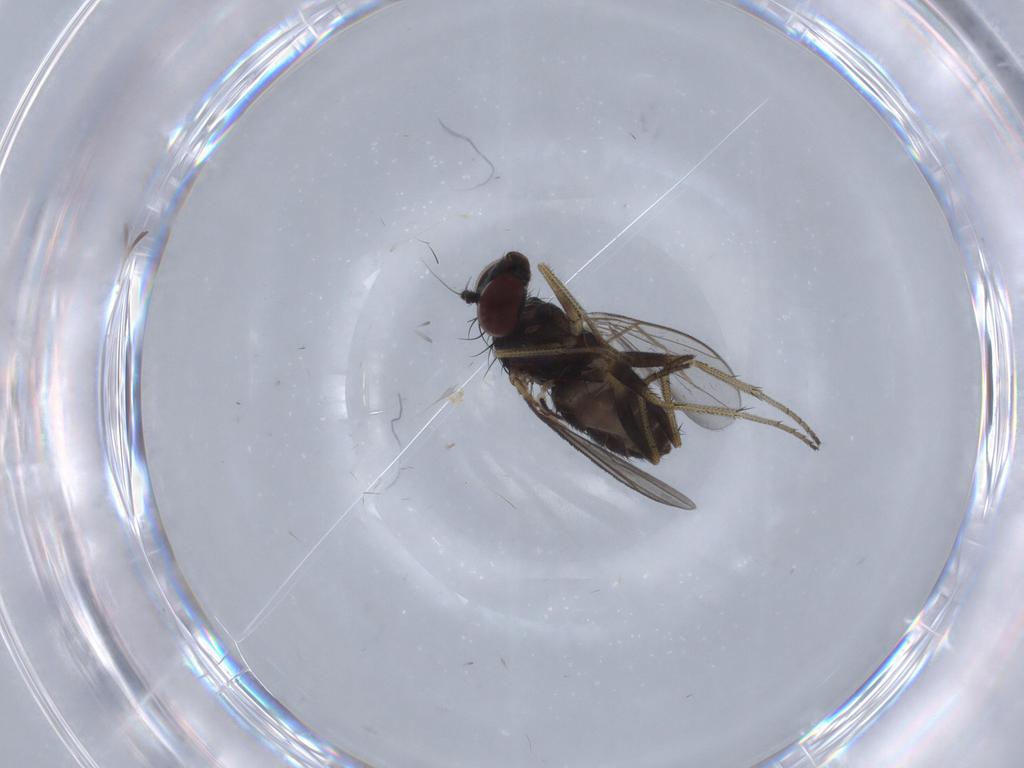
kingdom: Animalia
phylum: Arthropoda
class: Insecta
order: Diptera
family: Dolichopodidae
